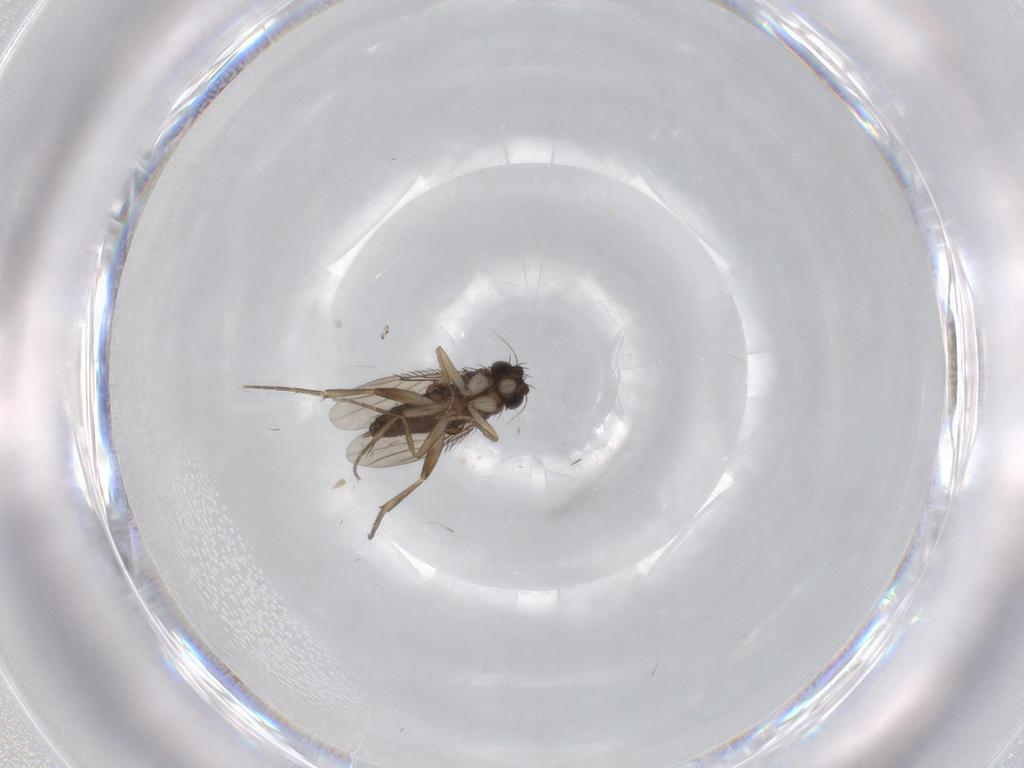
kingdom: Animalia
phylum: Arthropoda
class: Insecta
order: Diptera
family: Phoridae
